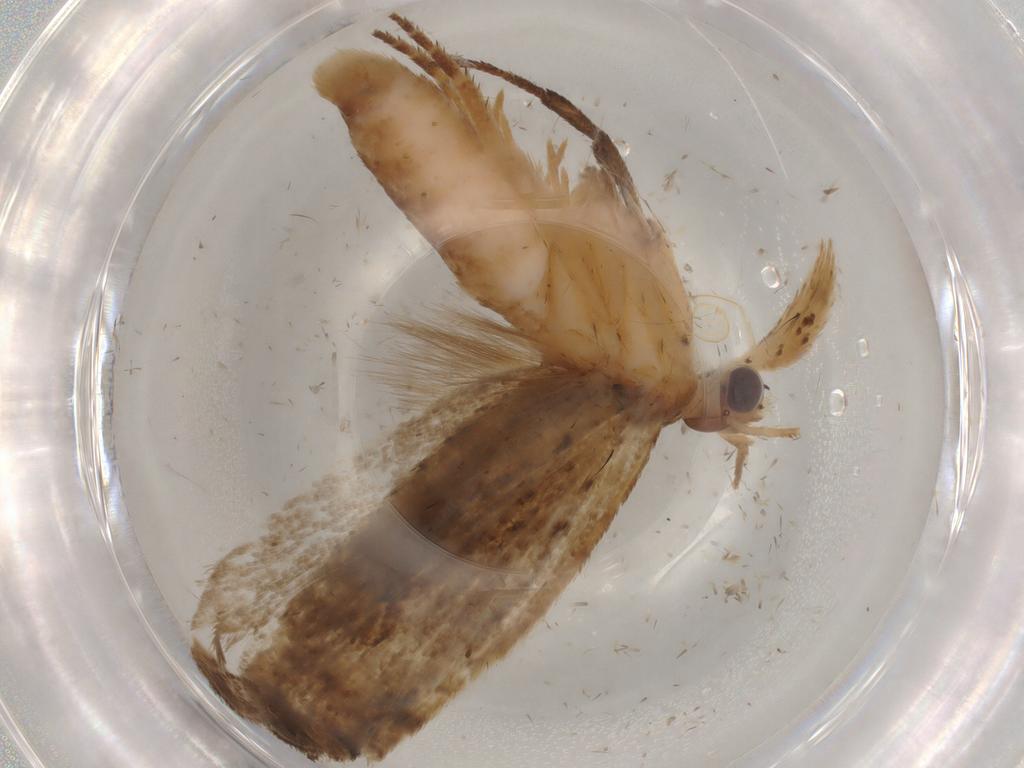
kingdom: Animalia
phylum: Arthropoda
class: Insecta
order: Lepidoptera
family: Gelechiidae
